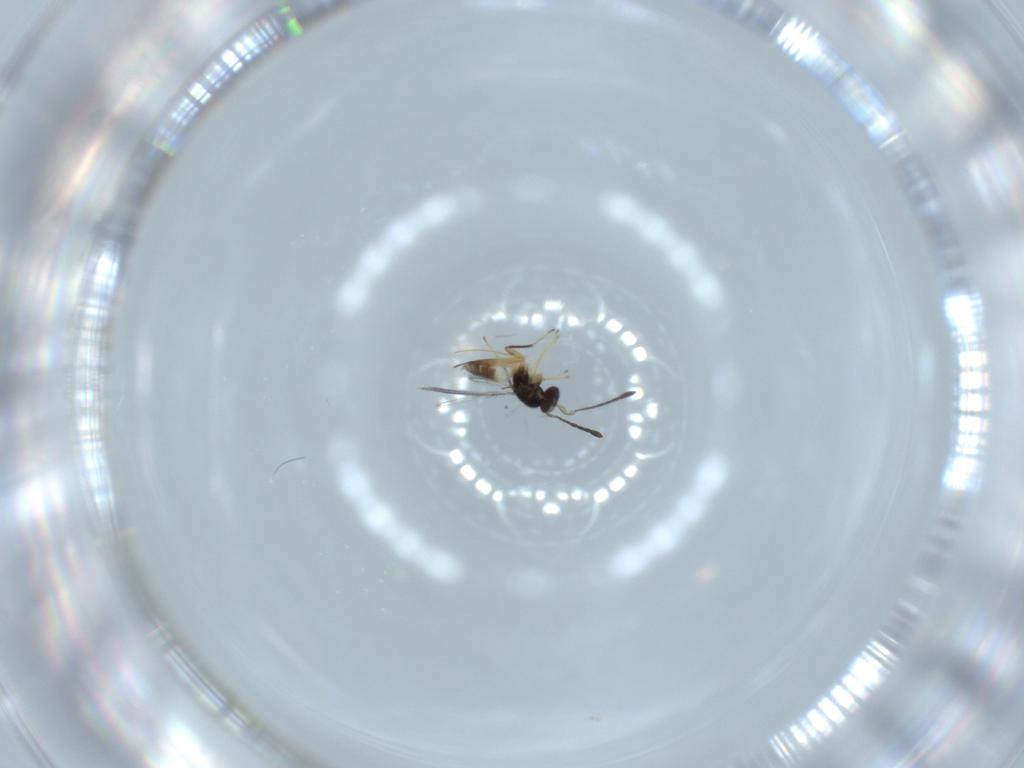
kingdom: Animalia
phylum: Arthropoda
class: Insecta
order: Hymenoptera
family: Mymaridae
